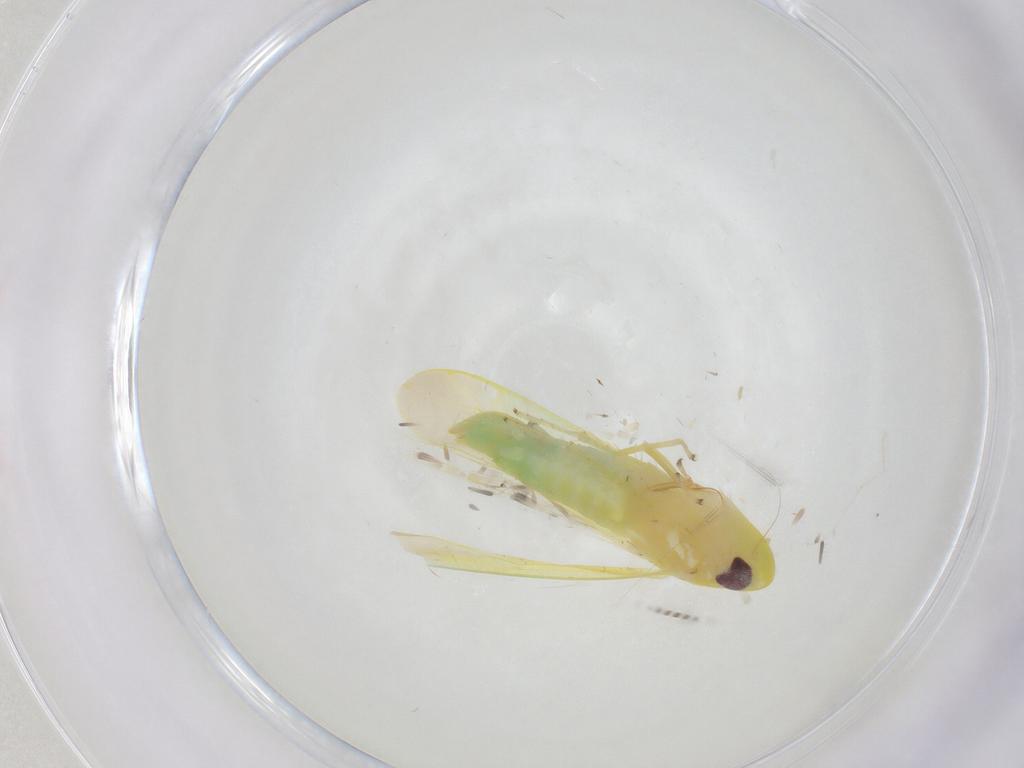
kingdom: Animalia
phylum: Arthropoda
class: Insecta
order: Hemiptera
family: Cicadellidae
